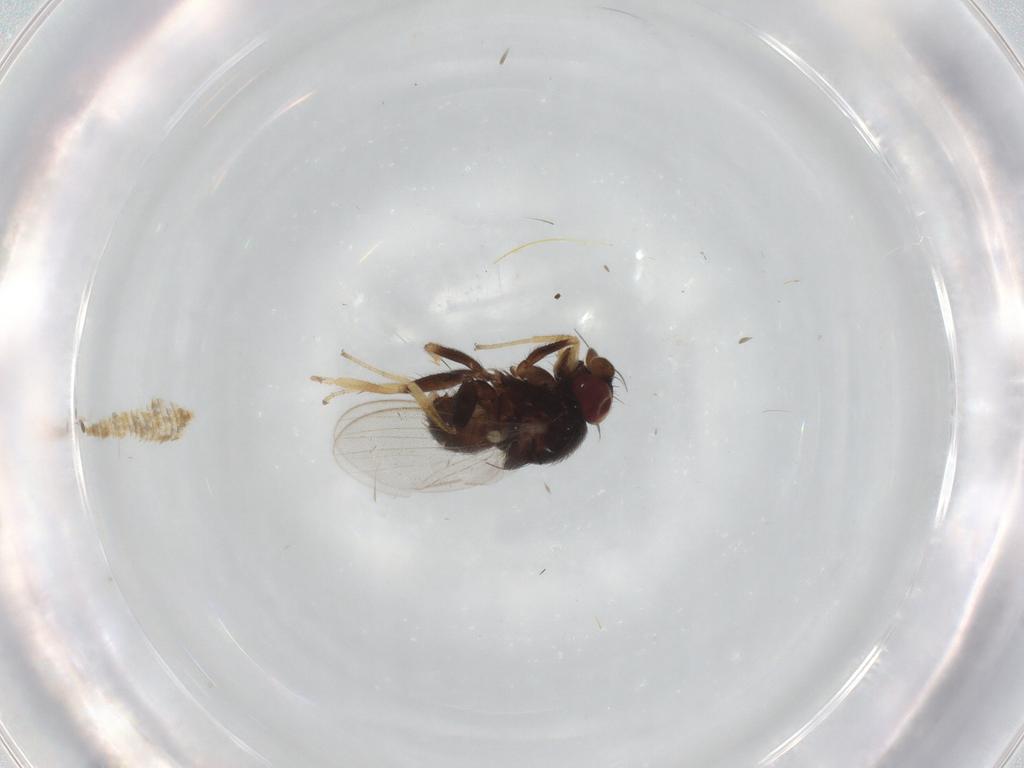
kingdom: Animalia
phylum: Arthropoda
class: Insecta
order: Diptera
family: Milichiidae
